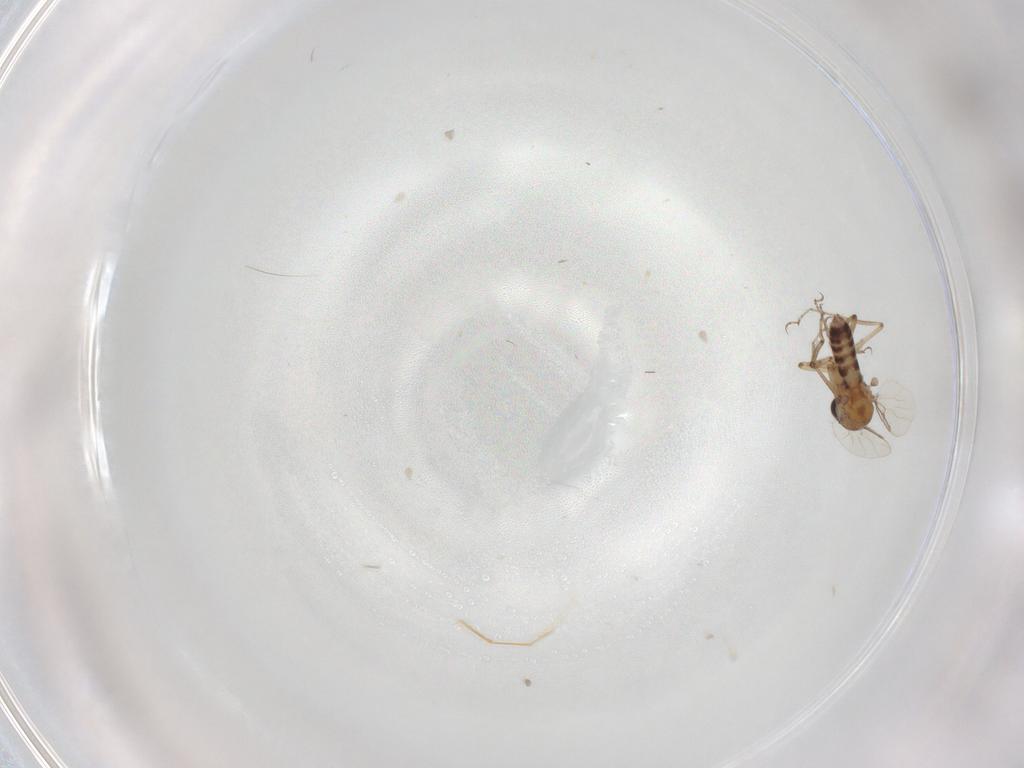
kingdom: Animalia
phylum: Arthropoda
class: Insecta
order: Diptera
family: Ceratopogonidae
